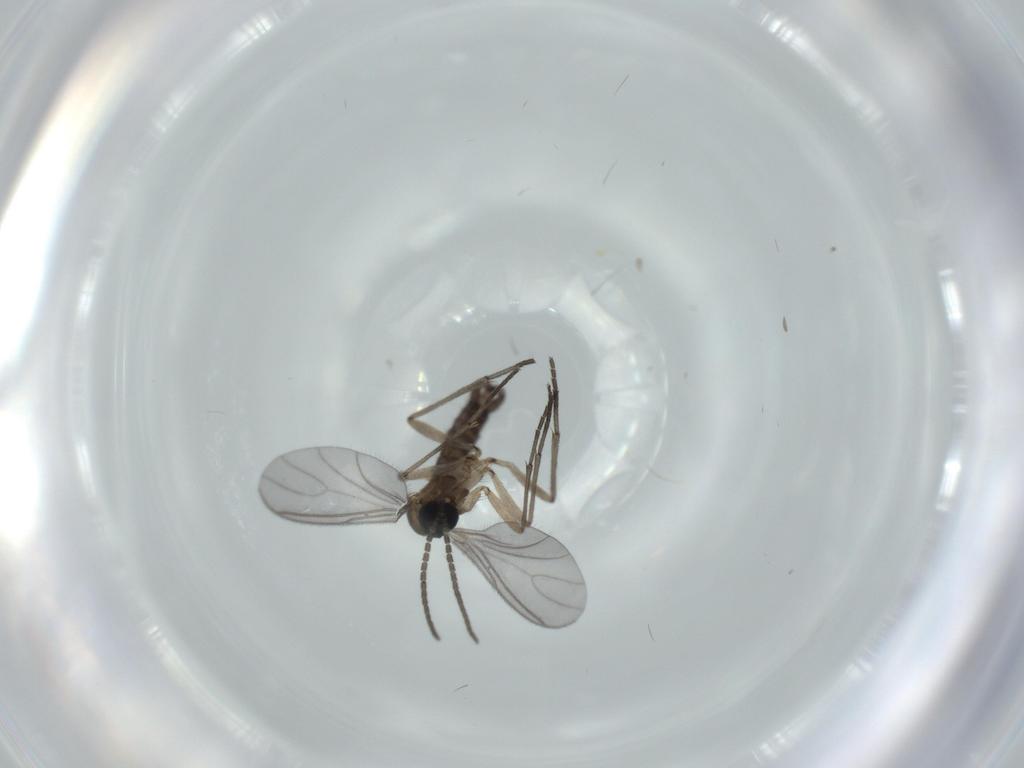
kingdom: Animalia
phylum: Arthropoda
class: Insecta
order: Diptera
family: Sciaridae
